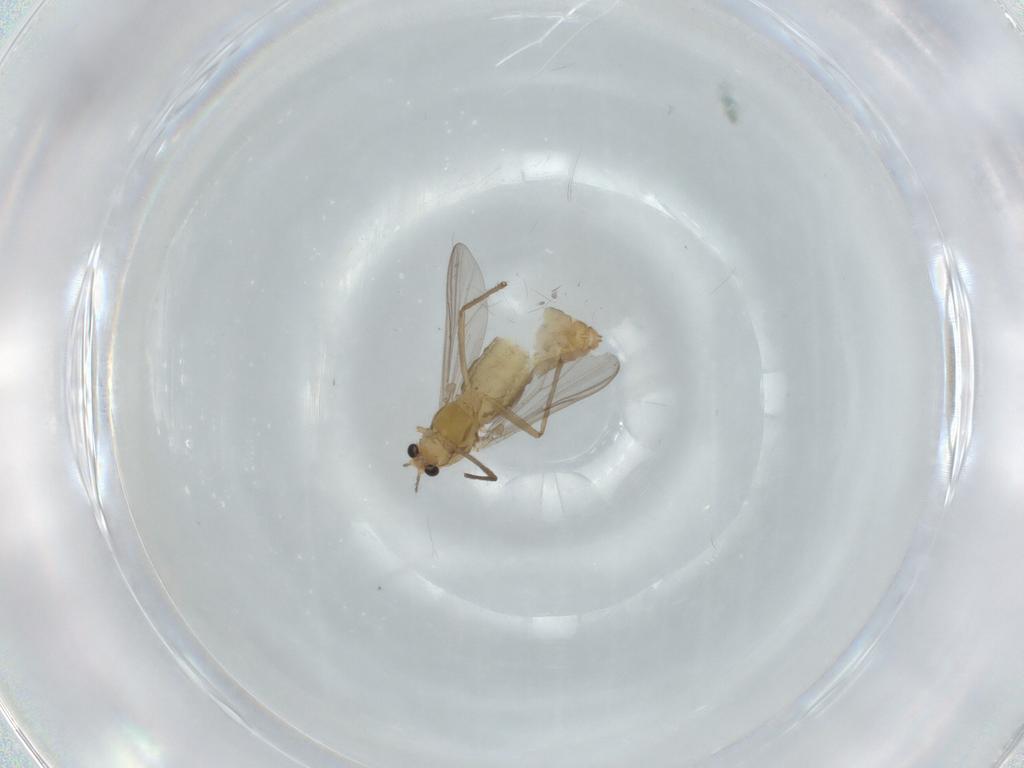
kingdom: Animalia
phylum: Arthropoda
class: Insecta
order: Diptera
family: Chironomidae
